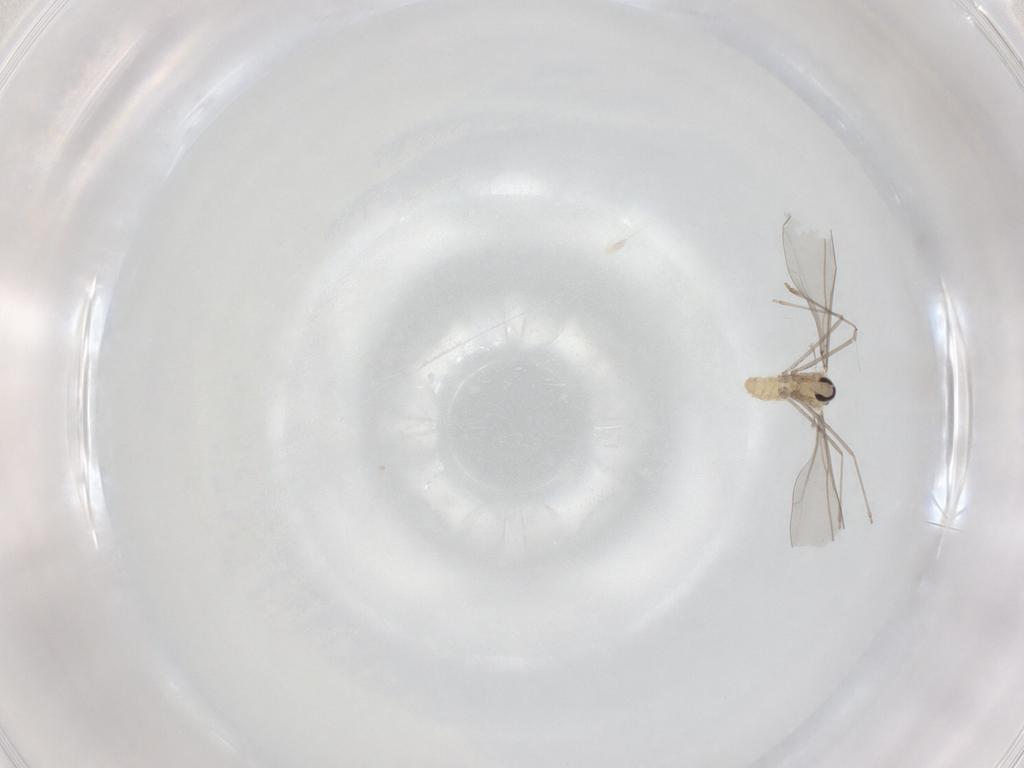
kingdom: Animalia
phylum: Arthropoda
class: Insecta
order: Diptera
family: Cecidomyiidae
